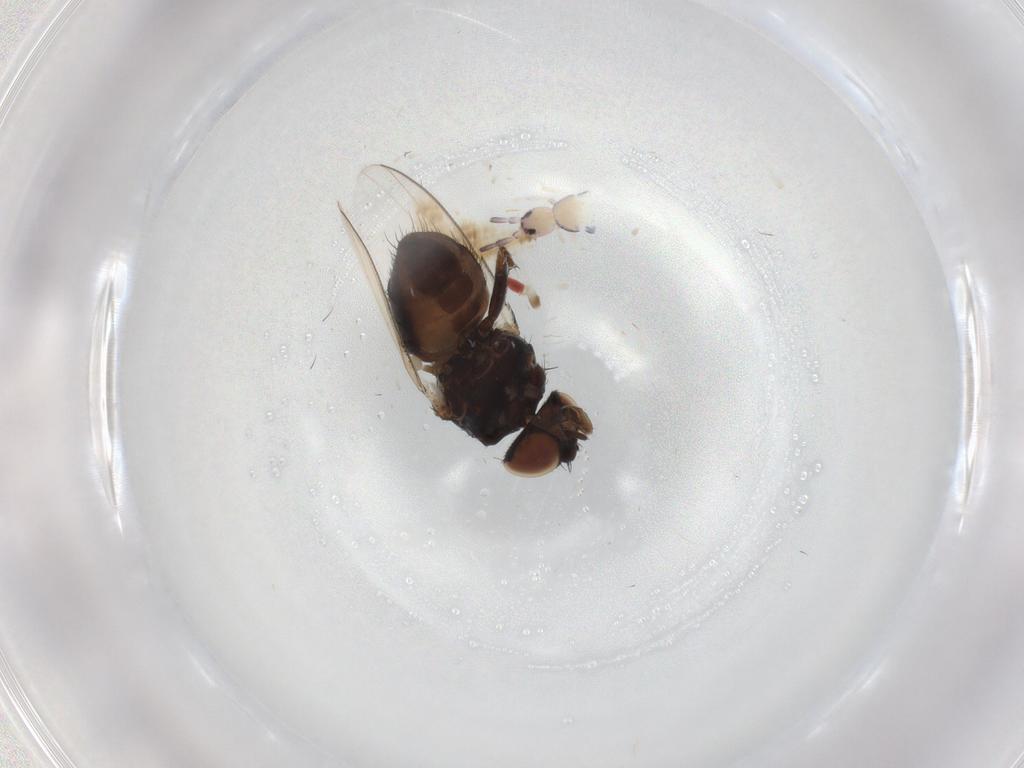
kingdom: Animalia
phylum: Arthropoda
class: Insecta
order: Diptera
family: Milichiidae
